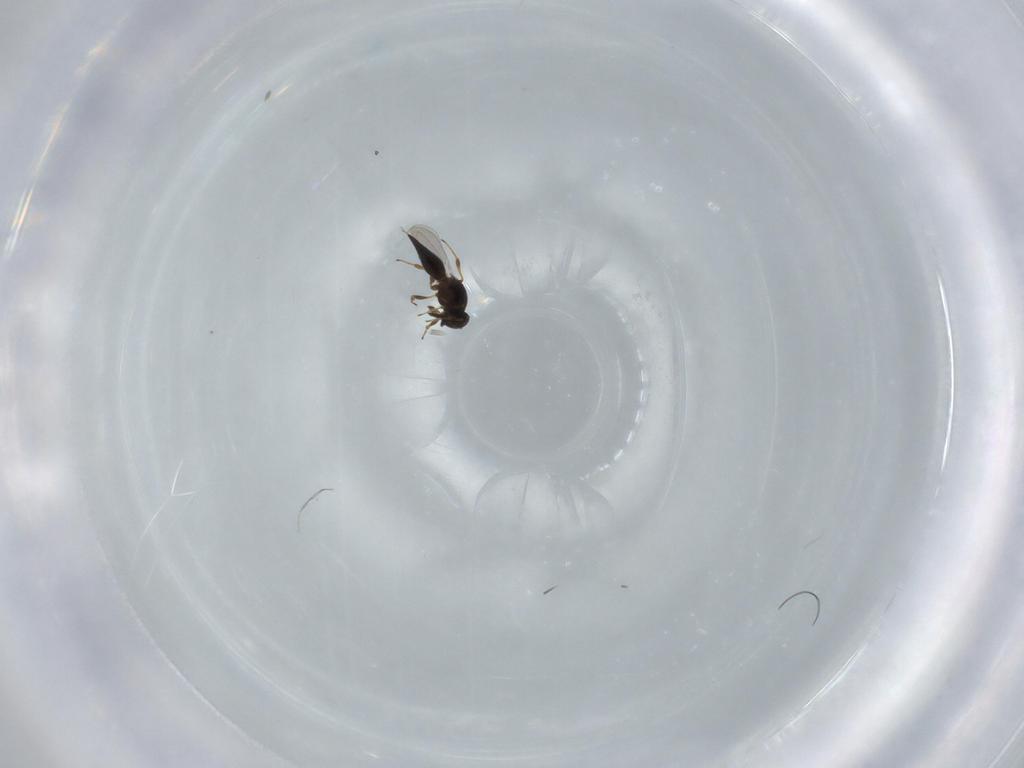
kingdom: Animalia
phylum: Arthropoda
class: Insecta
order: Hymenoptera
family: Platygastridae
